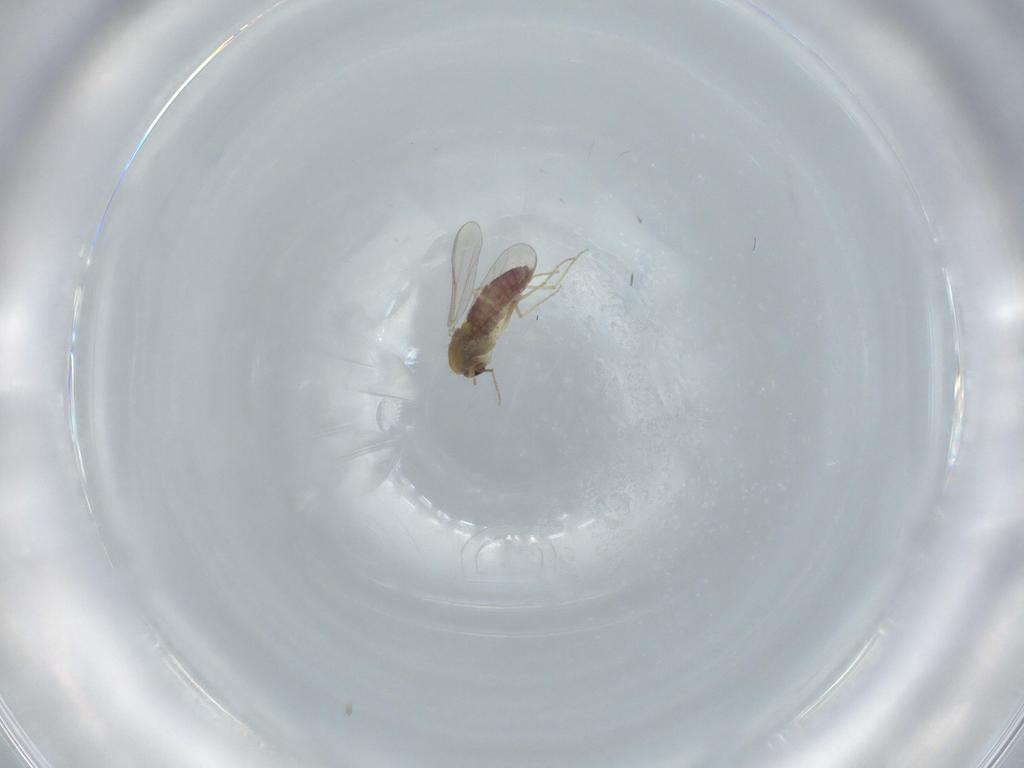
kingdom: Animalia
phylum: Arthropoda
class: Insecta
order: Diptera
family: Chironomidae
